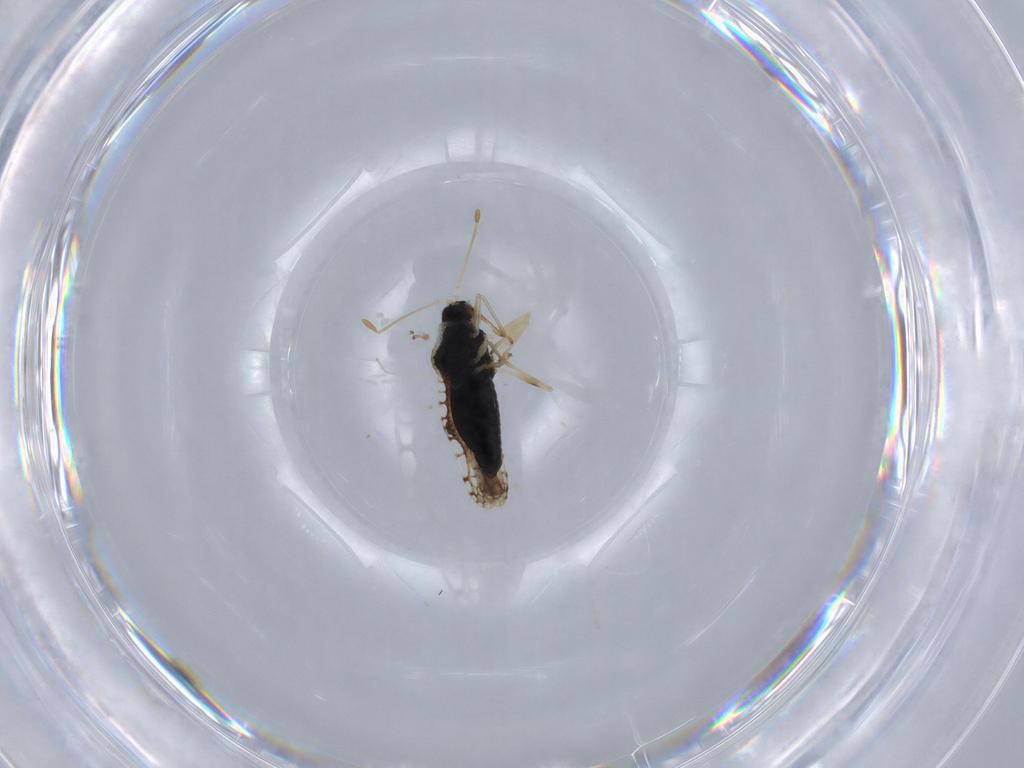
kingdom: Animalia
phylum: Arthropoda
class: Insecta
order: Hemiptera
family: Tingidae
